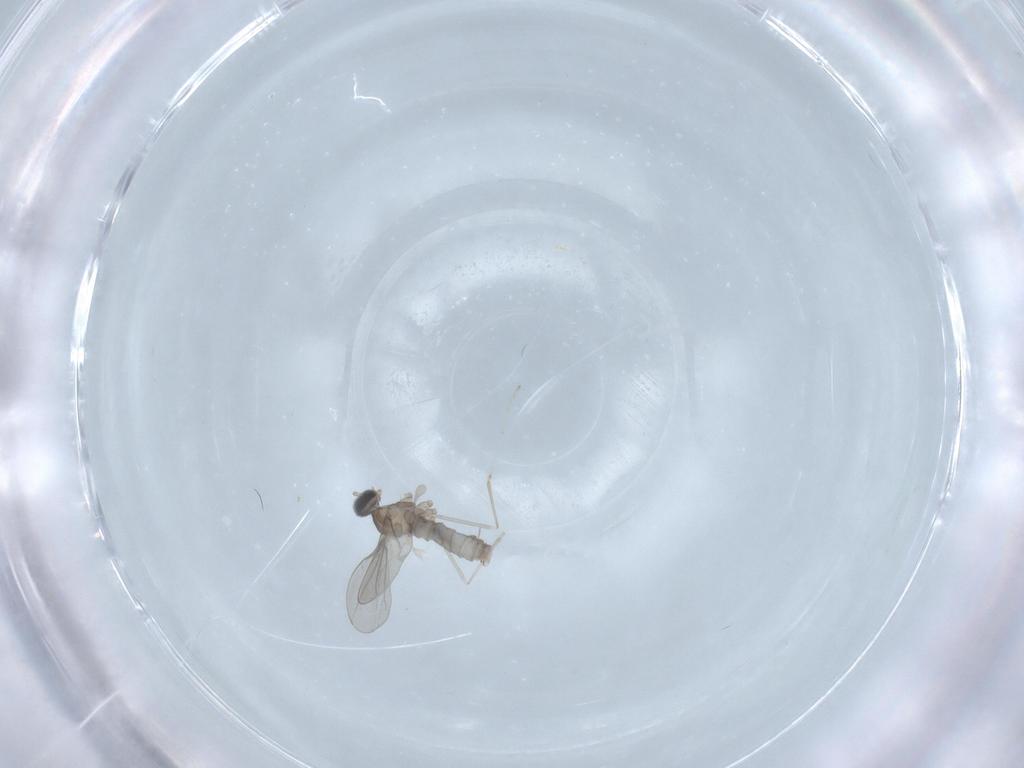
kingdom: Animalia
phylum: Arthropoda
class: Insecta
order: Diptera
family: Cecidomyiidae
